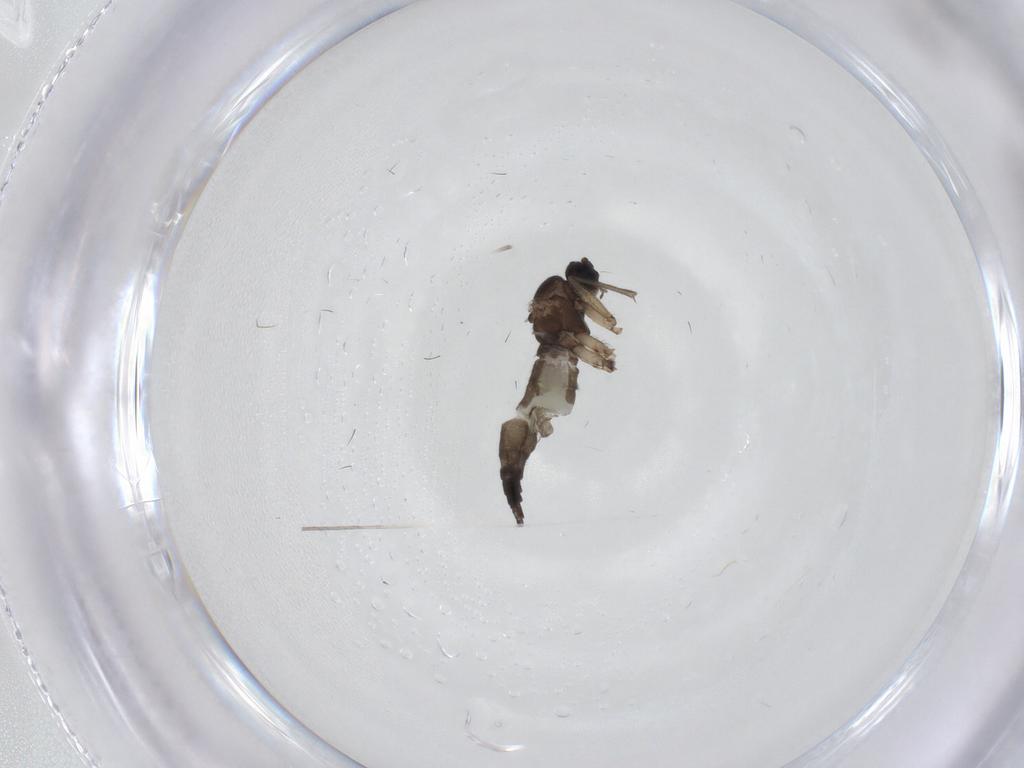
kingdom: Animalia
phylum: Arthropoda
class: Insecta
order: Diptera
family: Sciaridae
